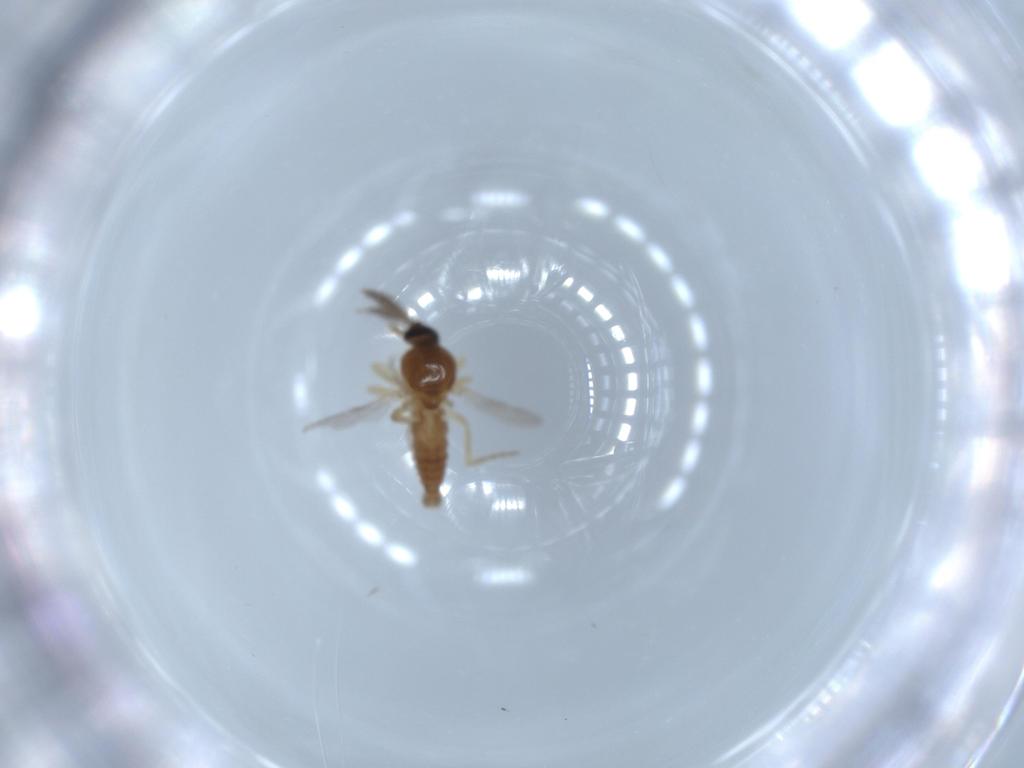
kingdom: Animalia
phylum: Arthropoda
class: Insecta
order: Diptera
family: Ceratopogonidae
